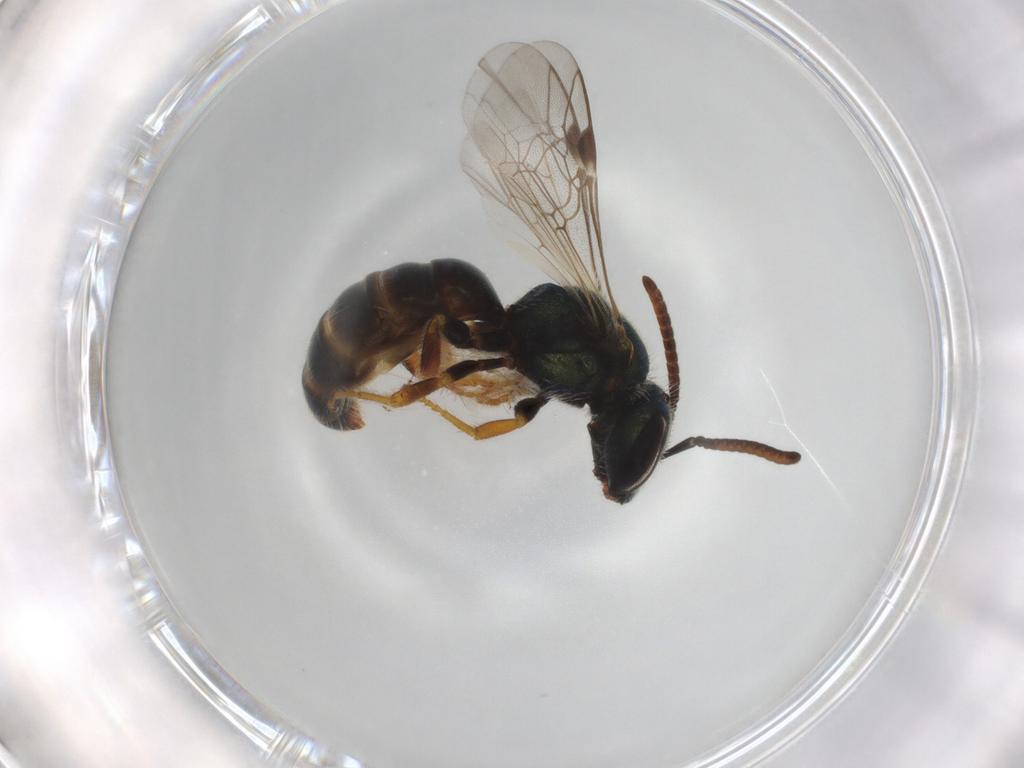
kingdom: Animalia
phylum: Arthropoda
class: Insecta
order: Hymenoptera
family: Halictidae
